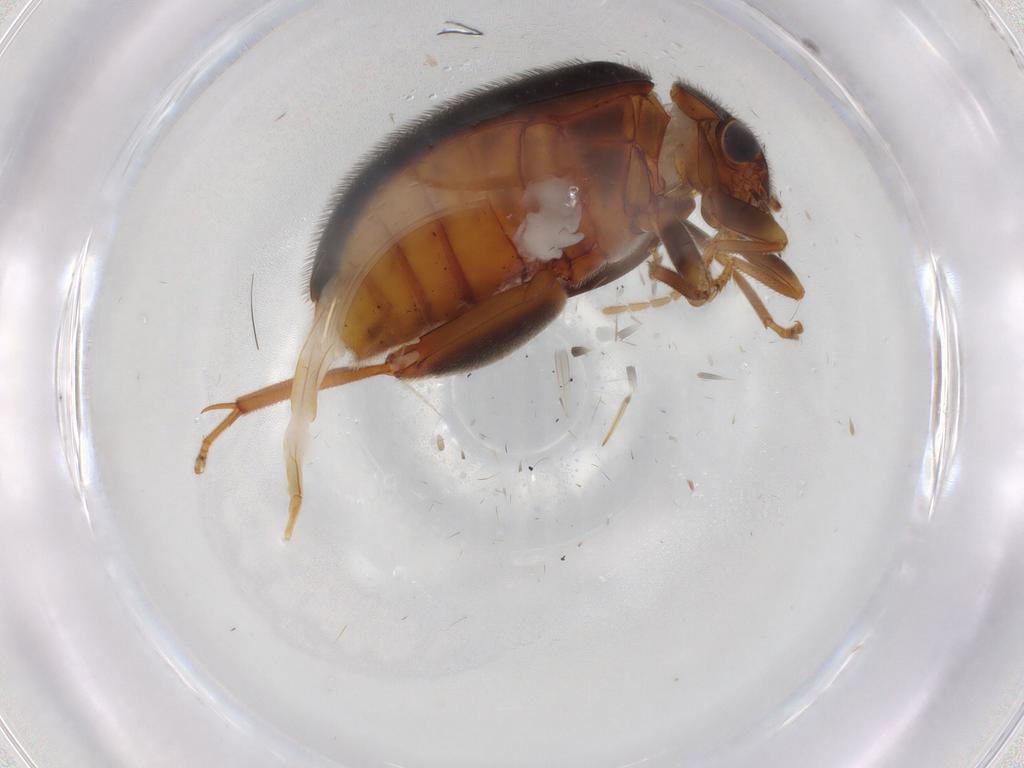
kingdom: Animalia
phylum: Arthropoda
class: Insecta
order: Coleoptera
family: Scirtidae
